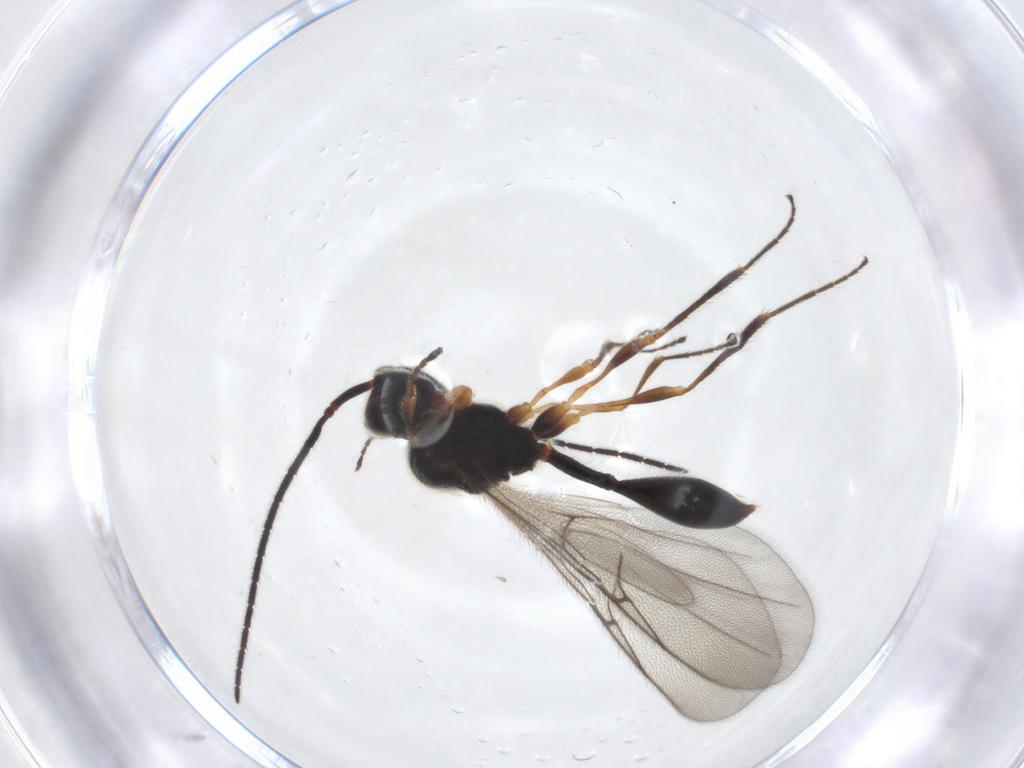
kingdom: Animalia
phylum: Arthropoda
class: Insecta
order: Hymenoptera
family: Diapriidae
